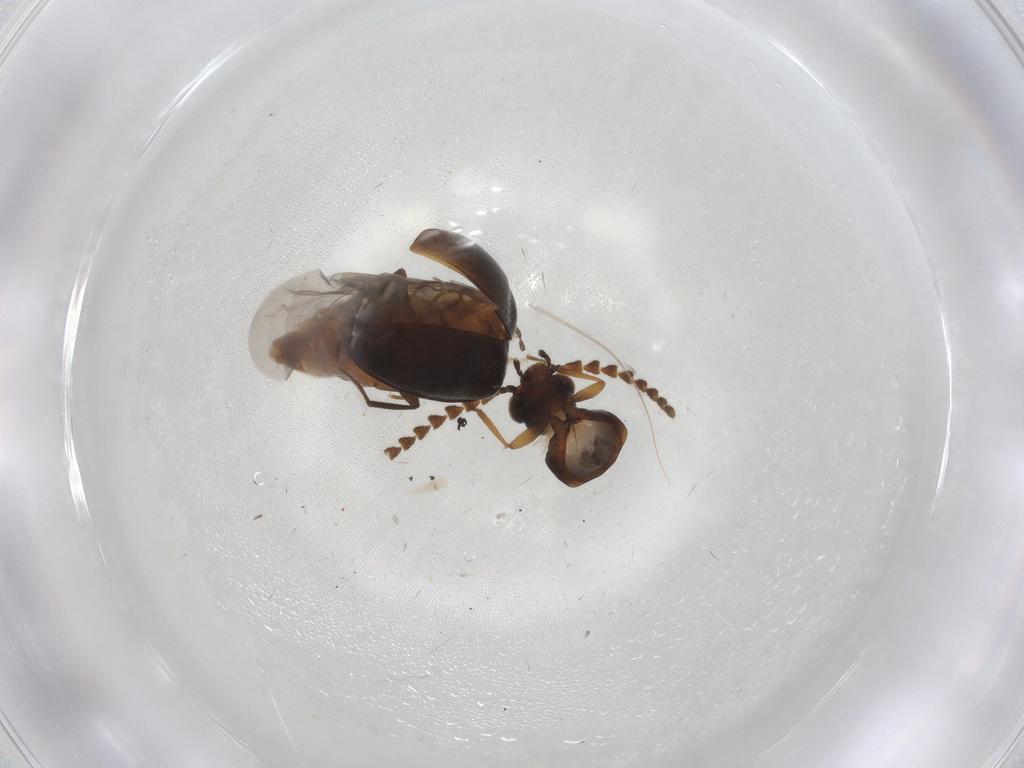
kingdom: Animalia
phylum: Arthropoda
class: Insecta
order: Coleoptera
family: Tenebrionidae
